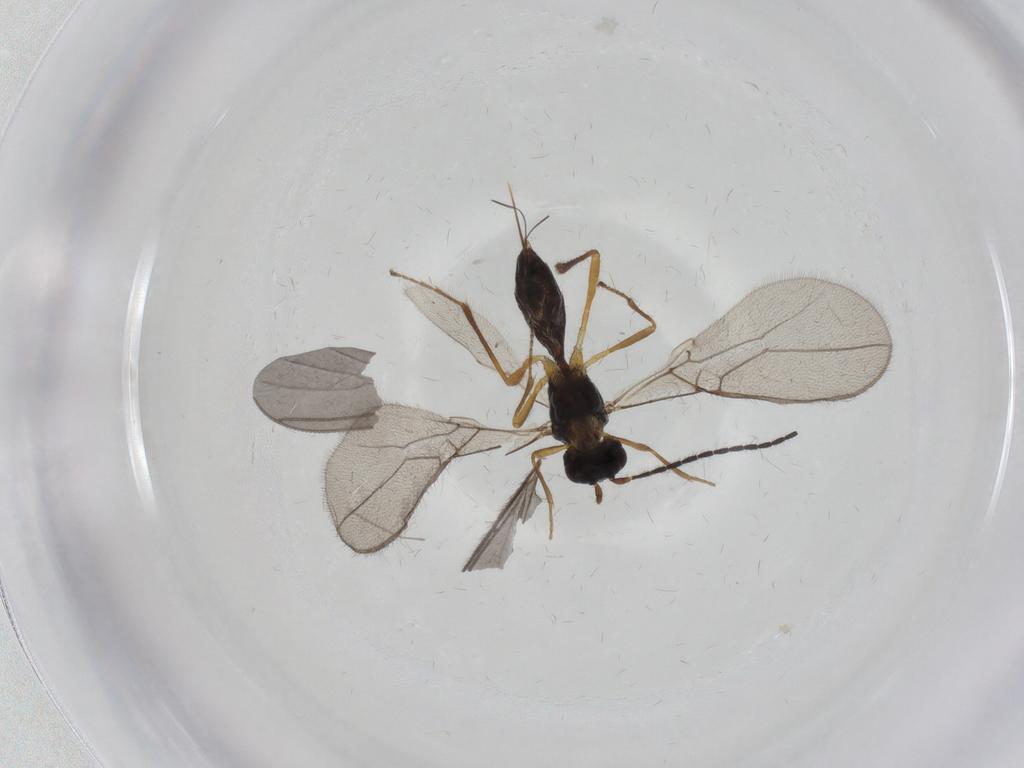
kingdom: Animalia
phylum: Arthropoda
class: Insecta
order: Hymenoptera
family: Braconidae
